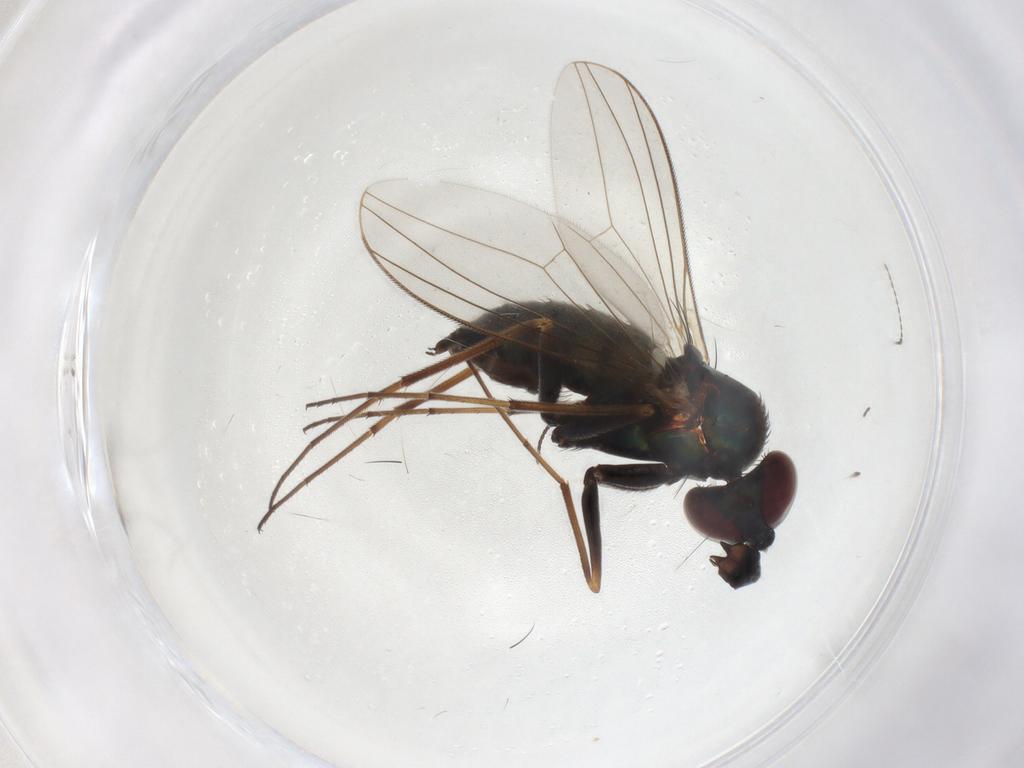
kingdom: Animalia
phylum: Arthropoda
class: Insecta
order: Diptera
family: Dolichopodidae
